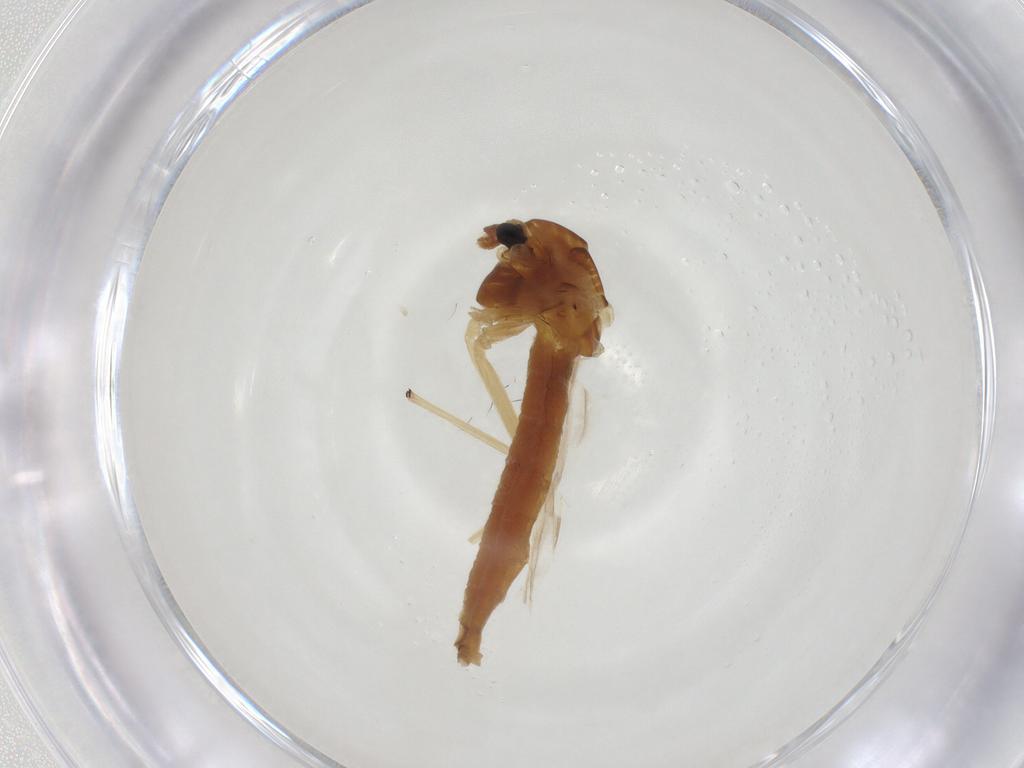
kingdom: Animalia
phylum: Arthropoda
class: Insecta
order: Diptera
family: Chironomidae
